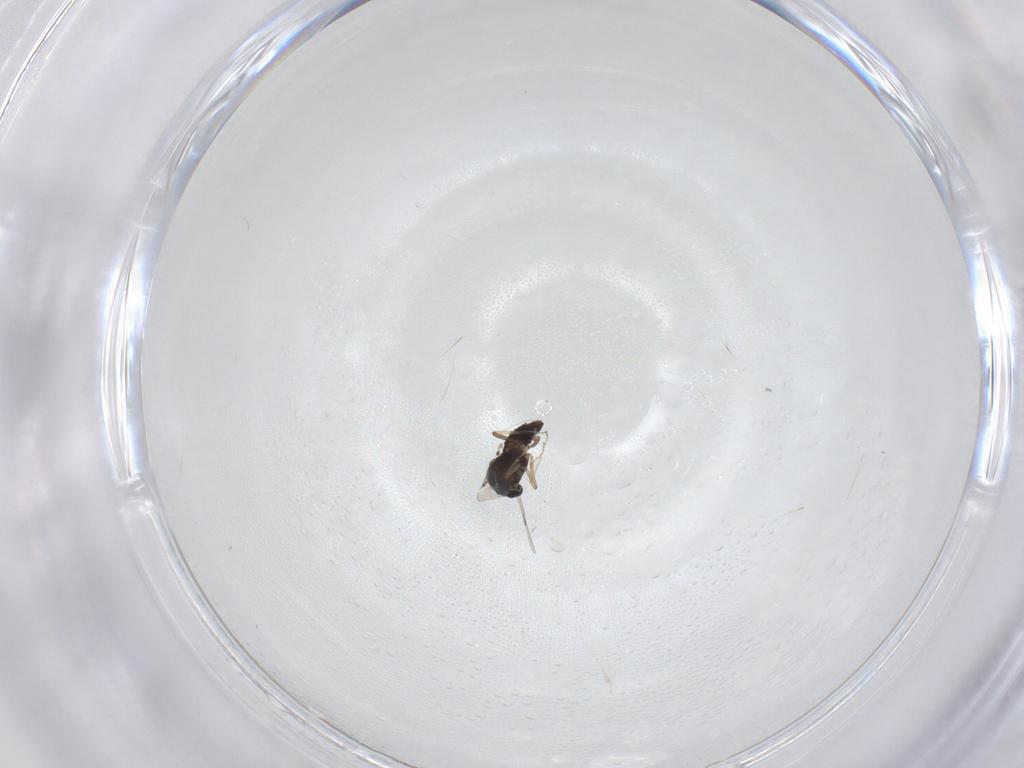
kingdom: Animalia
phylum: Arthropoda
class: Insecta
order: Diptera
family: Ceratopogonidae
